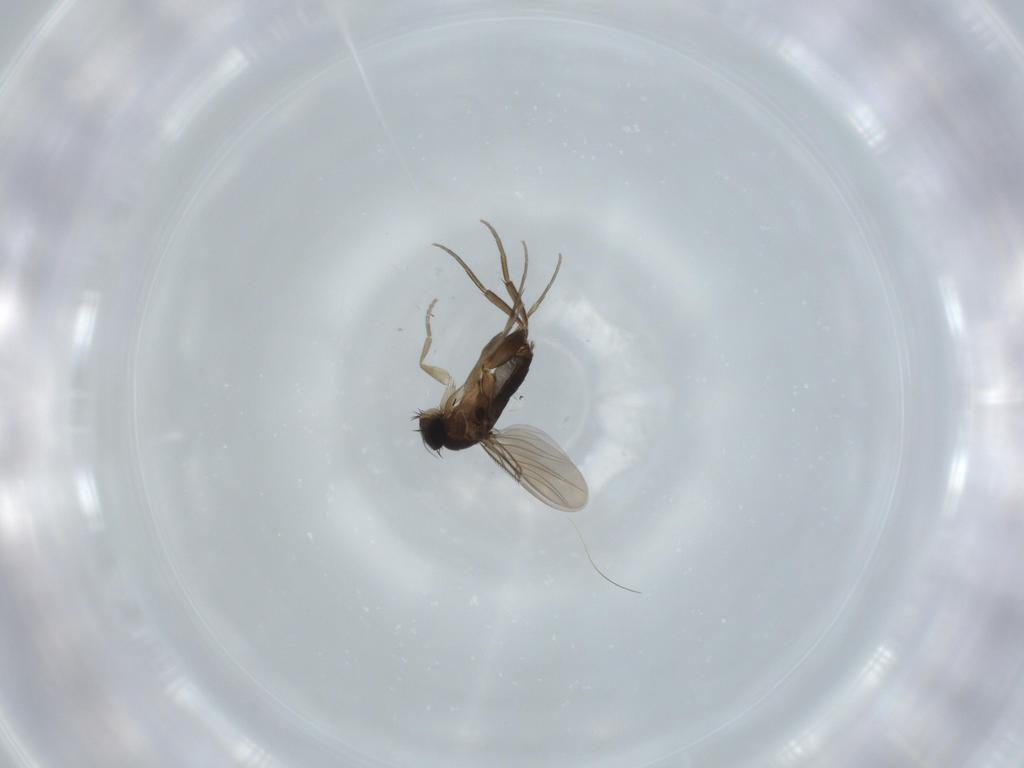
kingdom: Animalia
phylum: Arthropoda
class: Insecta
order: Diptera
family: Cecidomyiidae
